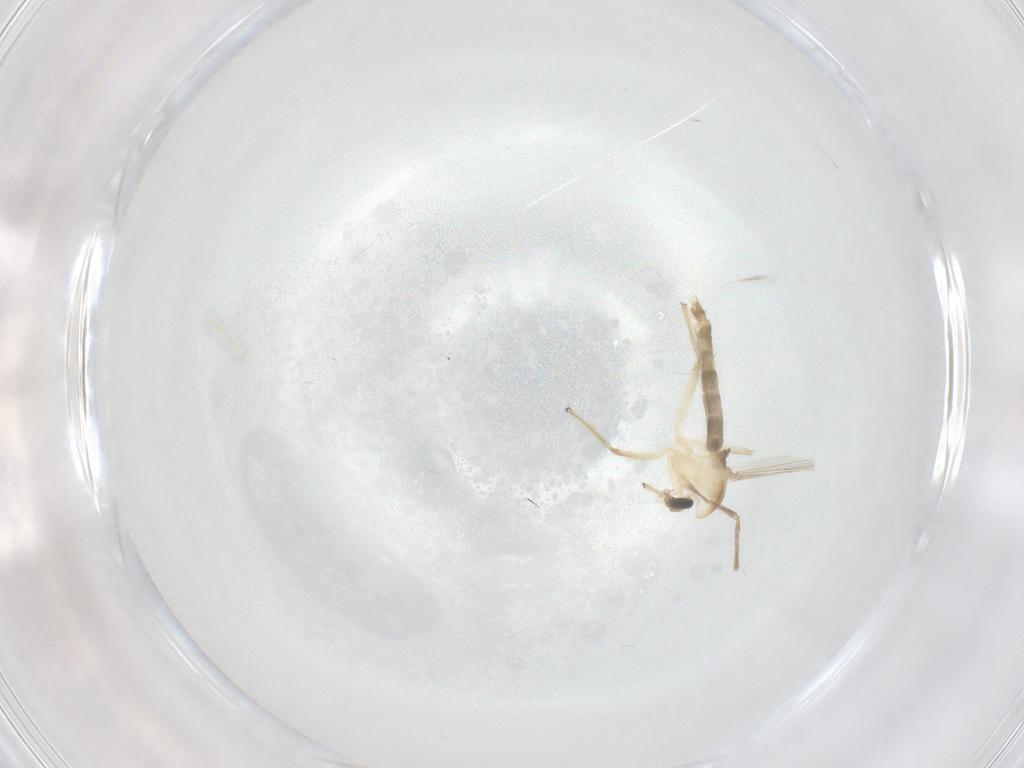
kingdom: Animalia
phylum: Arthropoda
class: Insecta
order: Diptera
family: Chironomidae
